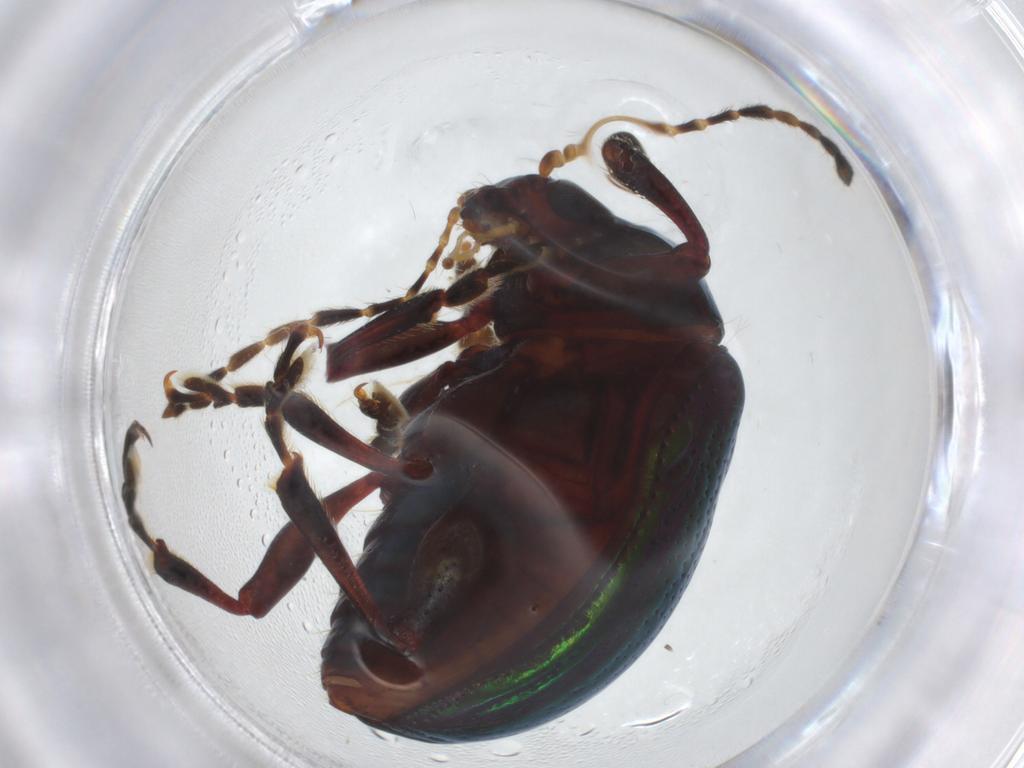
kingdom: Animalia
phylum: Arthropoda
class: Insecta
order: Coleoptera
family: Chrysomelidae
